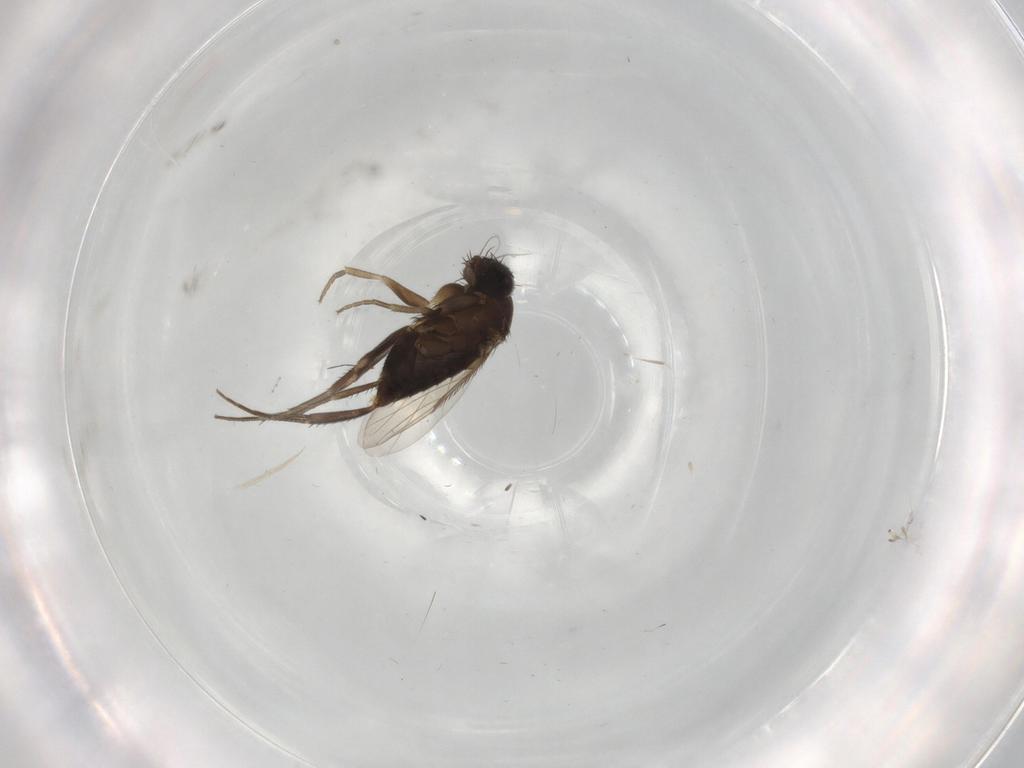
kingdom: Animalia
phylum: Arthropoda
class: Insecta
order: Diptera
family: Phoridae
